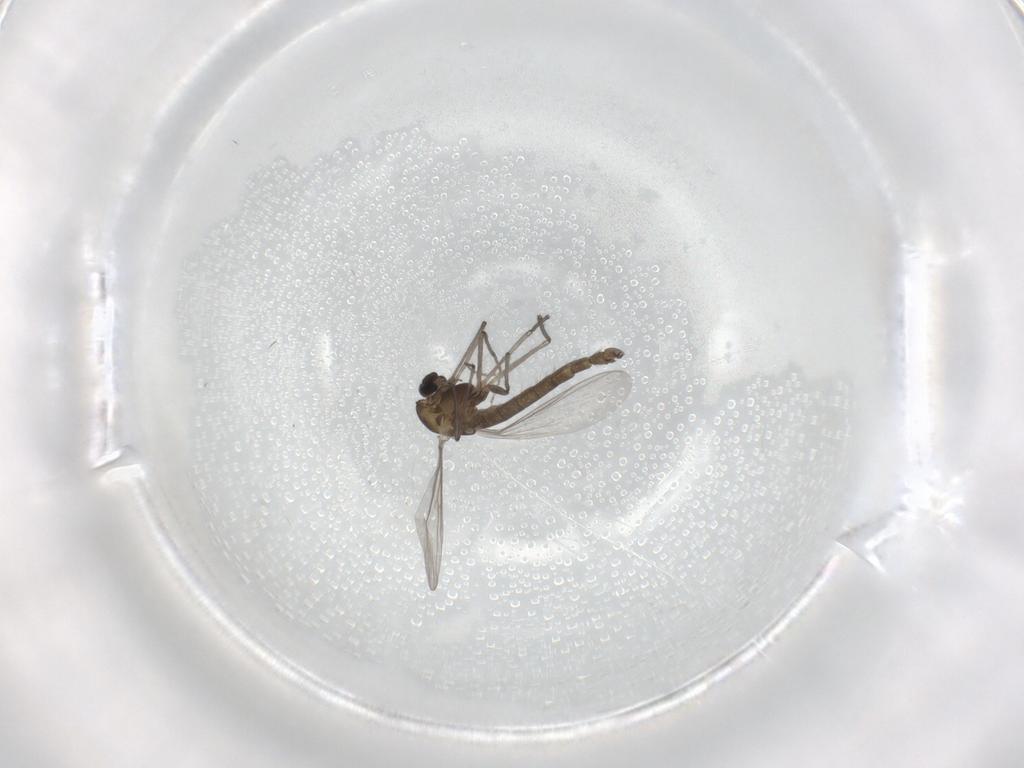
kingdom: Animalia
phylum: Arthropoda
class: Insecta
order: Diptera
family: Chironomidae
